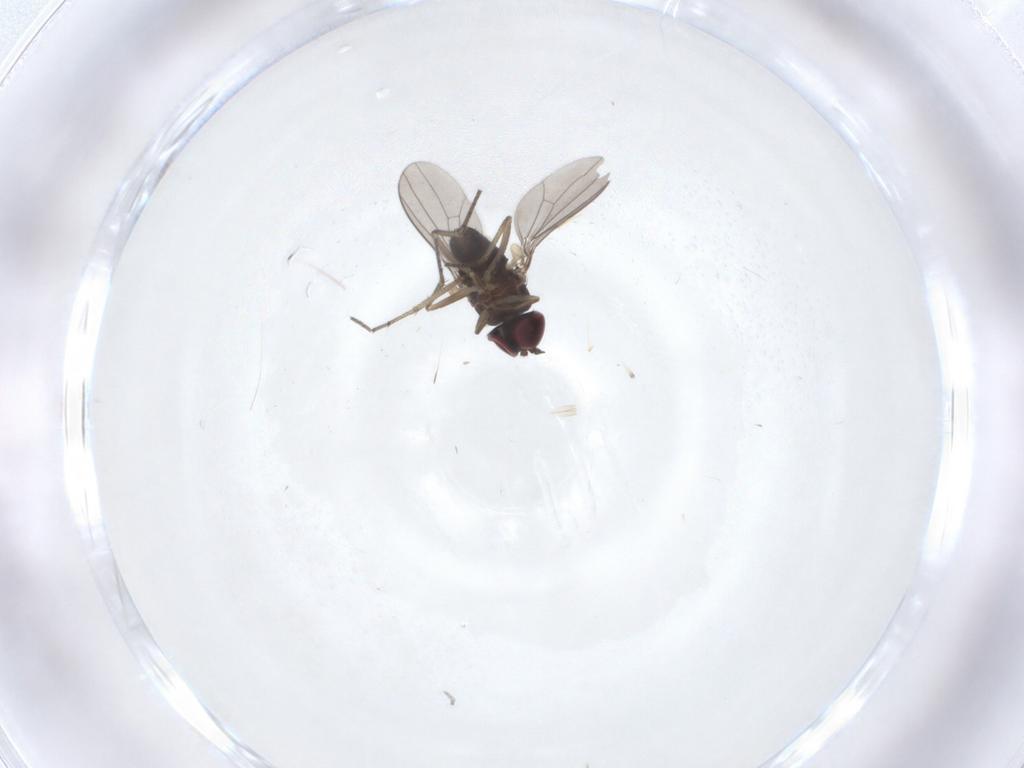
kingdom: Animalia
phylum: Arthropoda
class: Insecta
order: Diptera
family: Dolichopodidae
